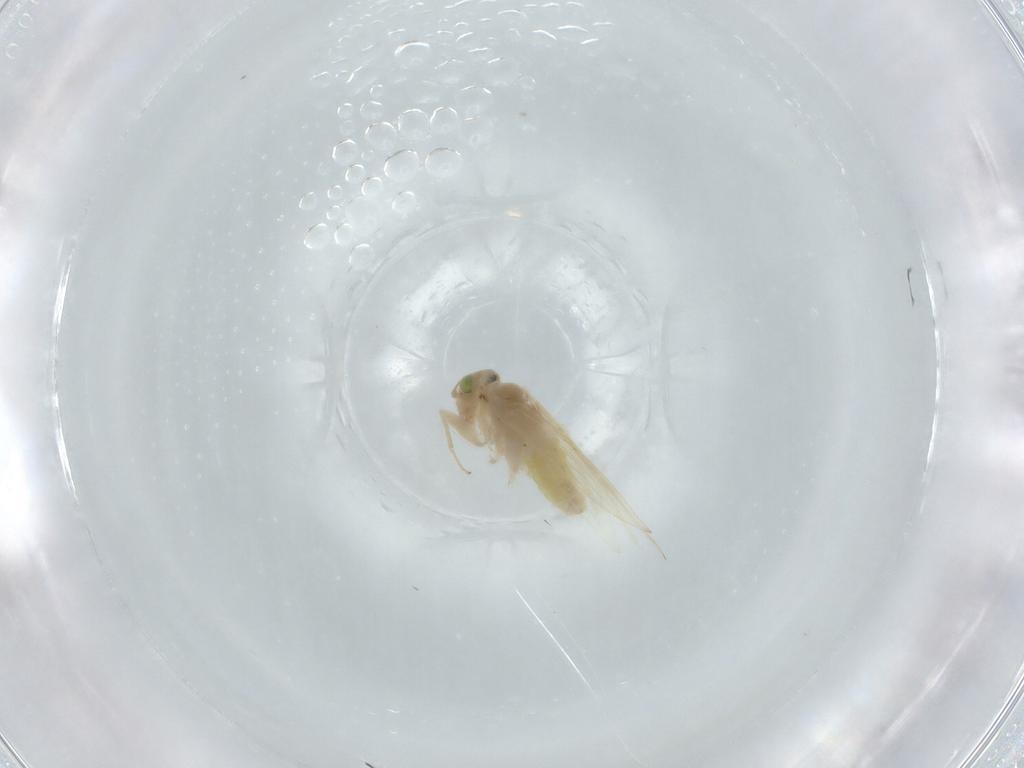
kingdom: Animalia
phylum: Arthropoda
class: Insecta
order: Psocodea
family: Lepidopsocidae
